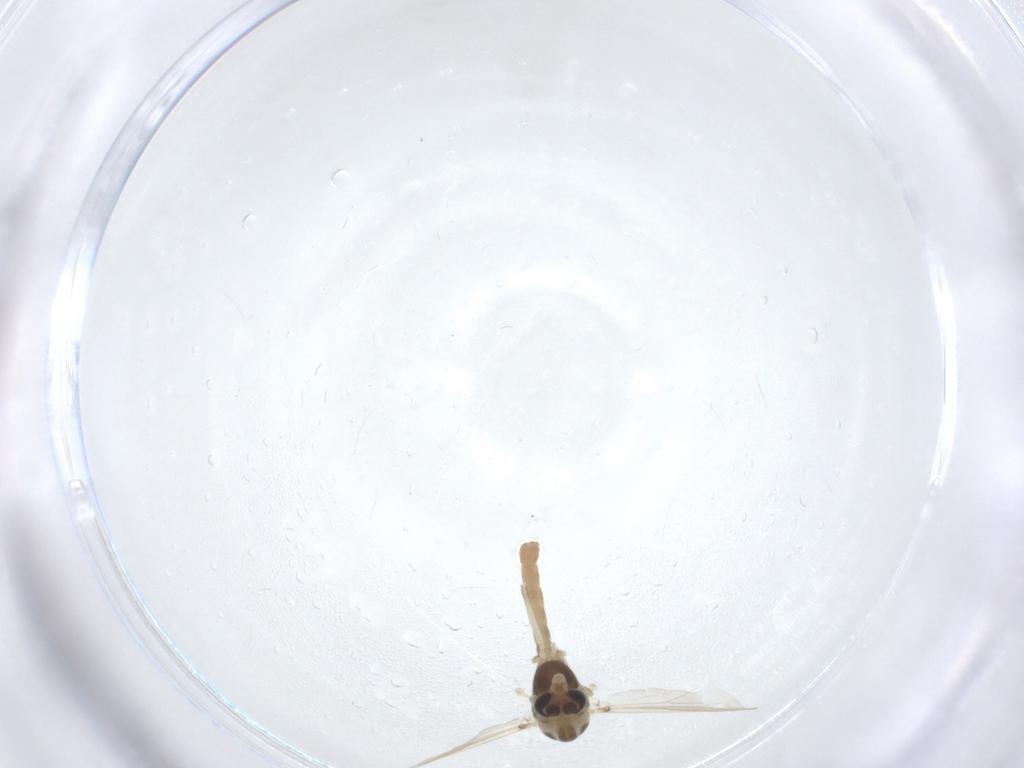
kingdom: Animalia
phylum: Arthropoda
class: Insecta
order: Diptera
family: Chironomidae
